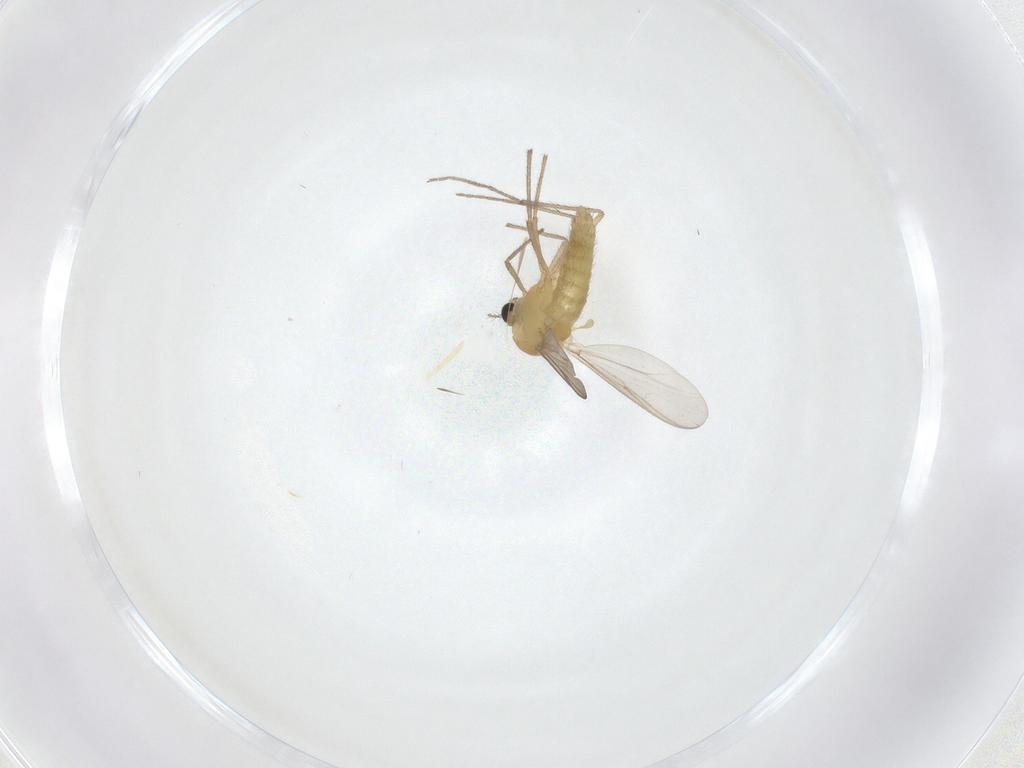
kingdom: Animalia
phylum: Arthropoda
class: Insecta
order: Diptera
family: Chironomidae
